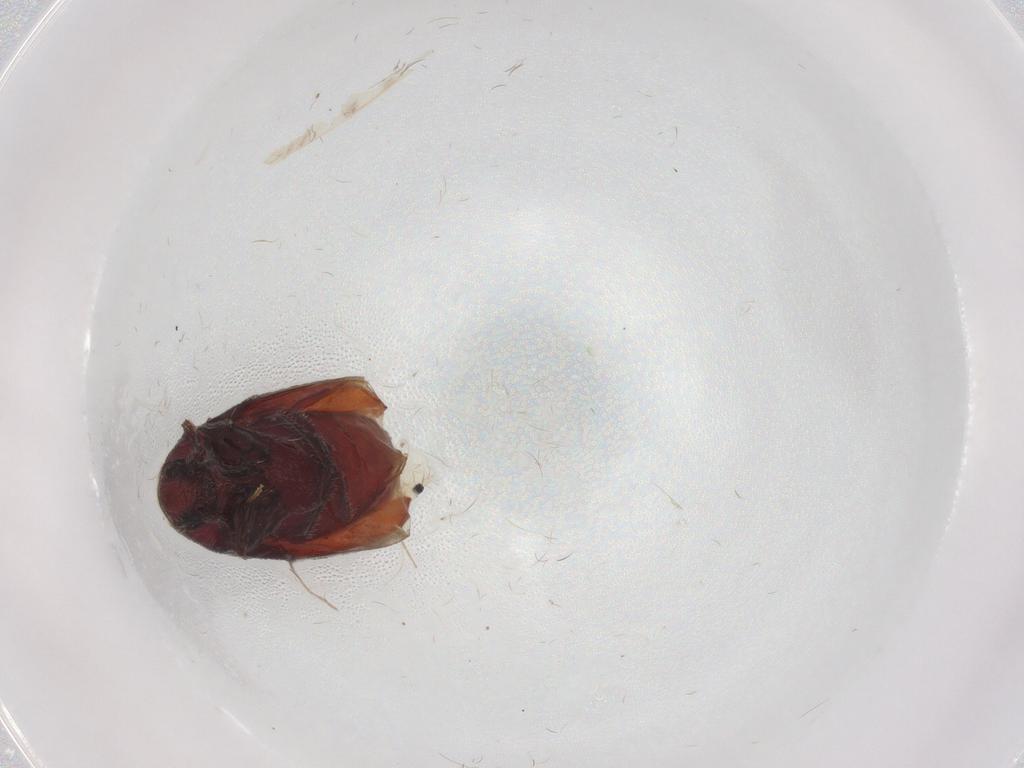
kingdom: Animalia
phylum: Arthropoda
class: Insecta
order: Coleoptera
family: Throscidae
